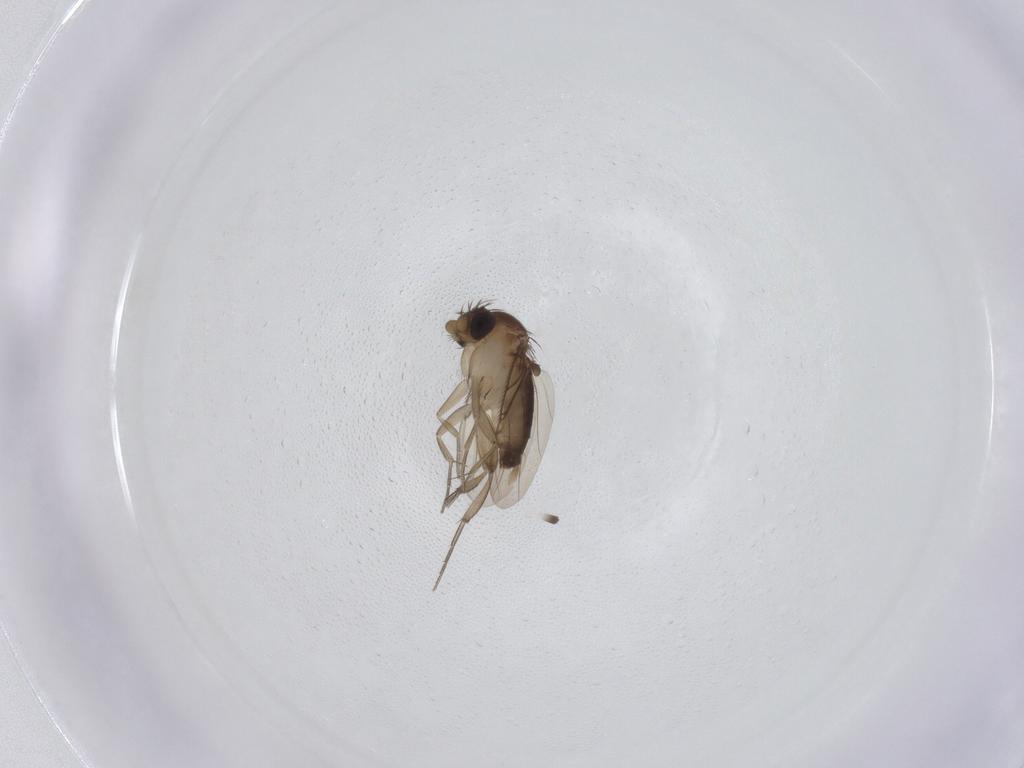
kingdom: Animalia
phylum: Arthropoda
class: Insecta
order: Diptera
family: Phoridae
